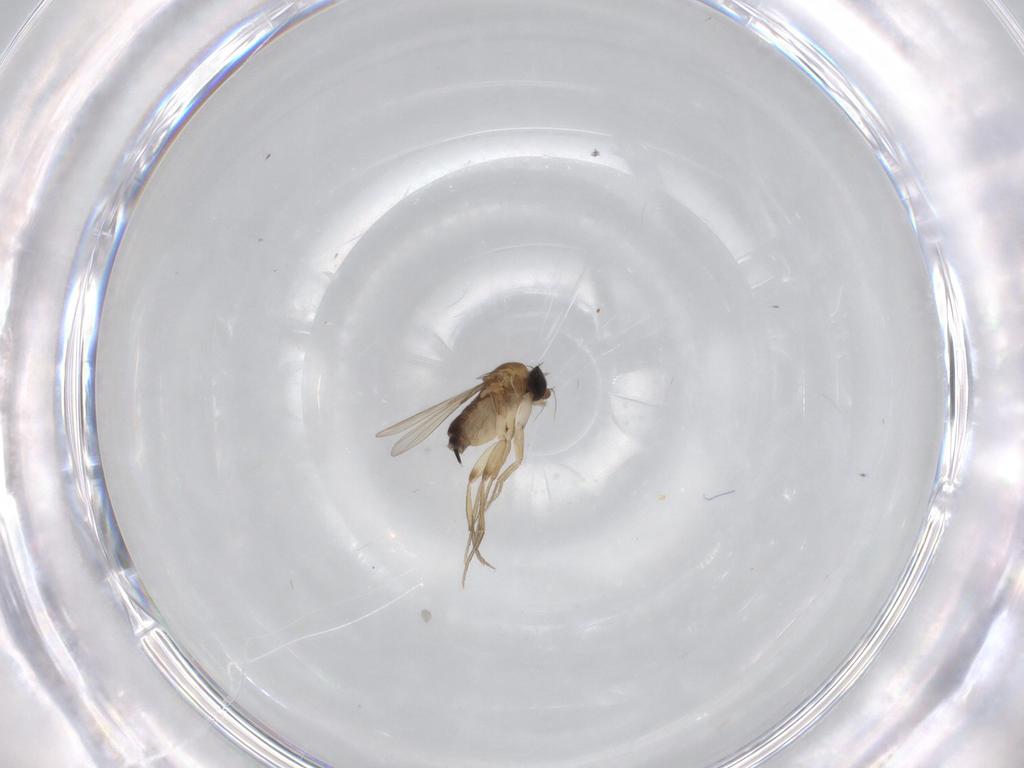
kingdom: Animalia
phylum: Arthropoda
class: Insecta
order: Diptera
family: Phoridae
